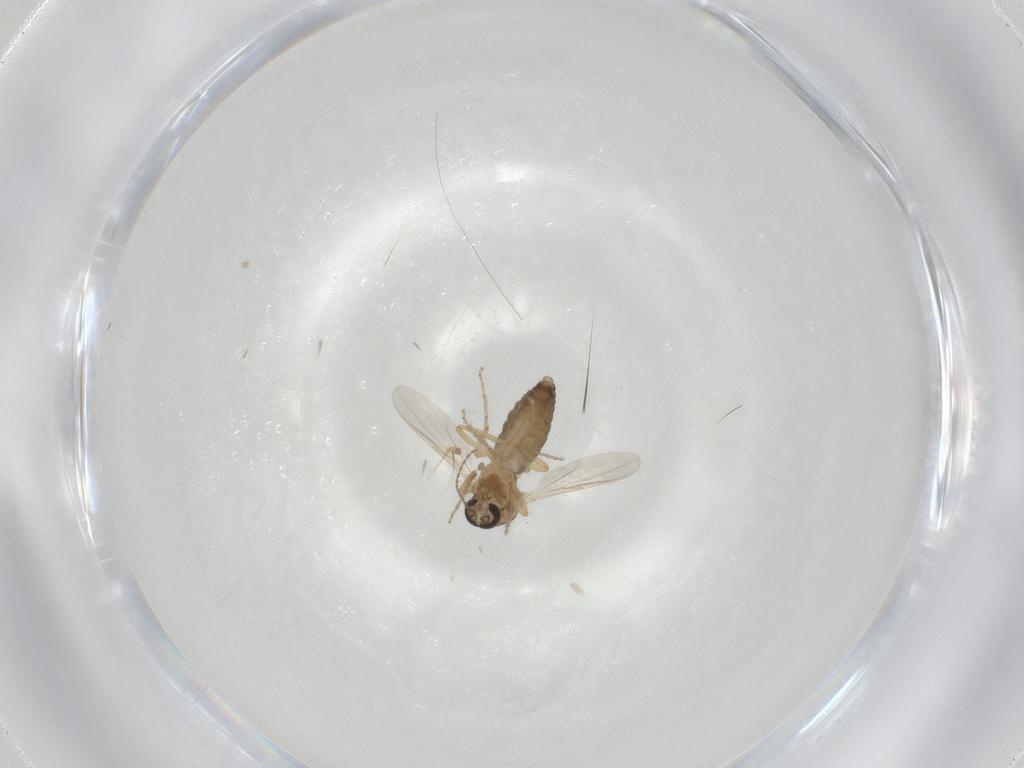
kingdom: Animalia
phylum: Arthropoda
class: Insecta
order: Diptera
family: Ceratopogonidae
